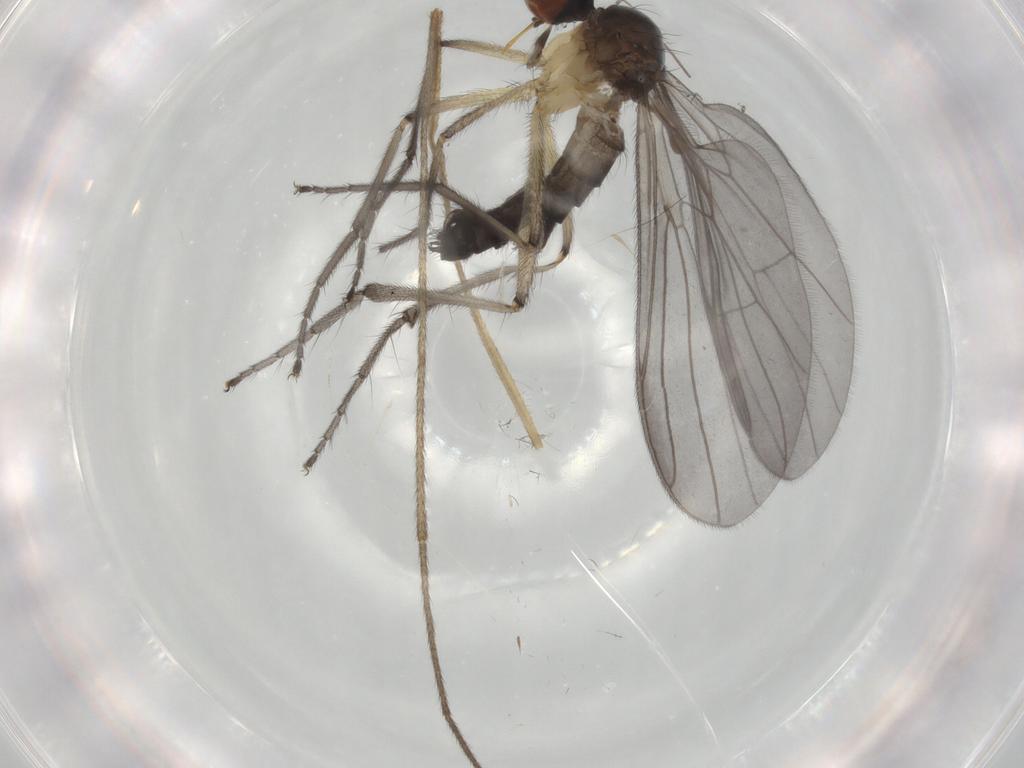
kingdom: Animalia
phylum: Arthropoda
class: Insecta
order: Diptera
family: Empididae
